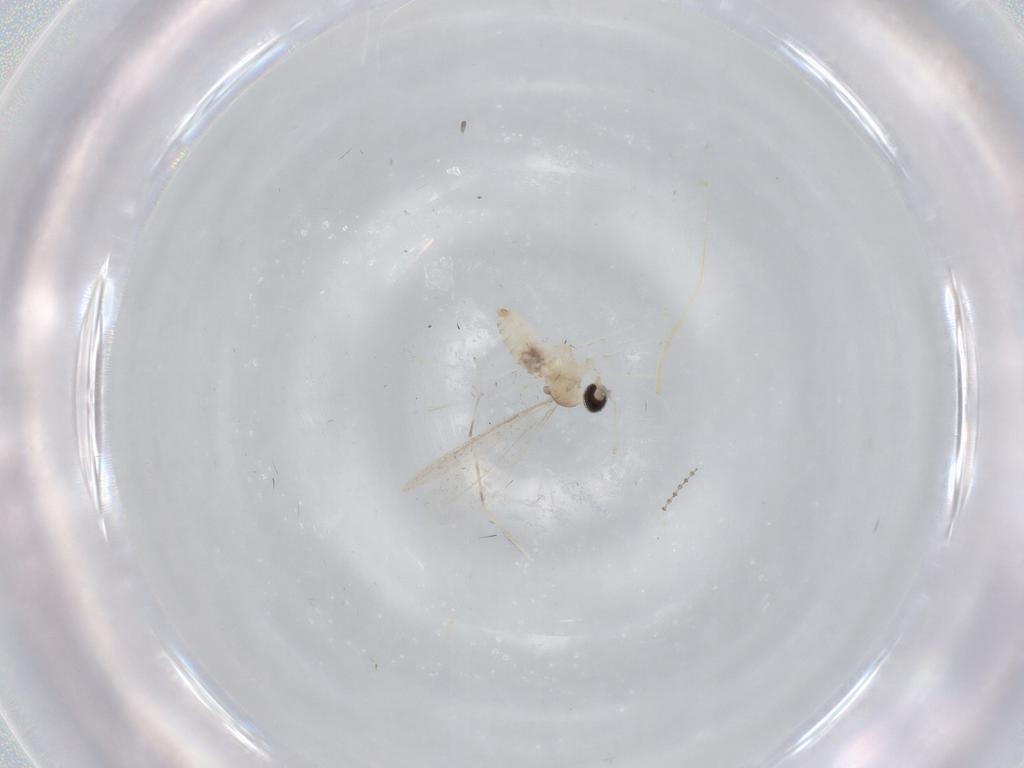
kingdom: Animalia
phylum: Arthropoda
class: Insecta
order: Diptera
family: Cecidomyiidae
